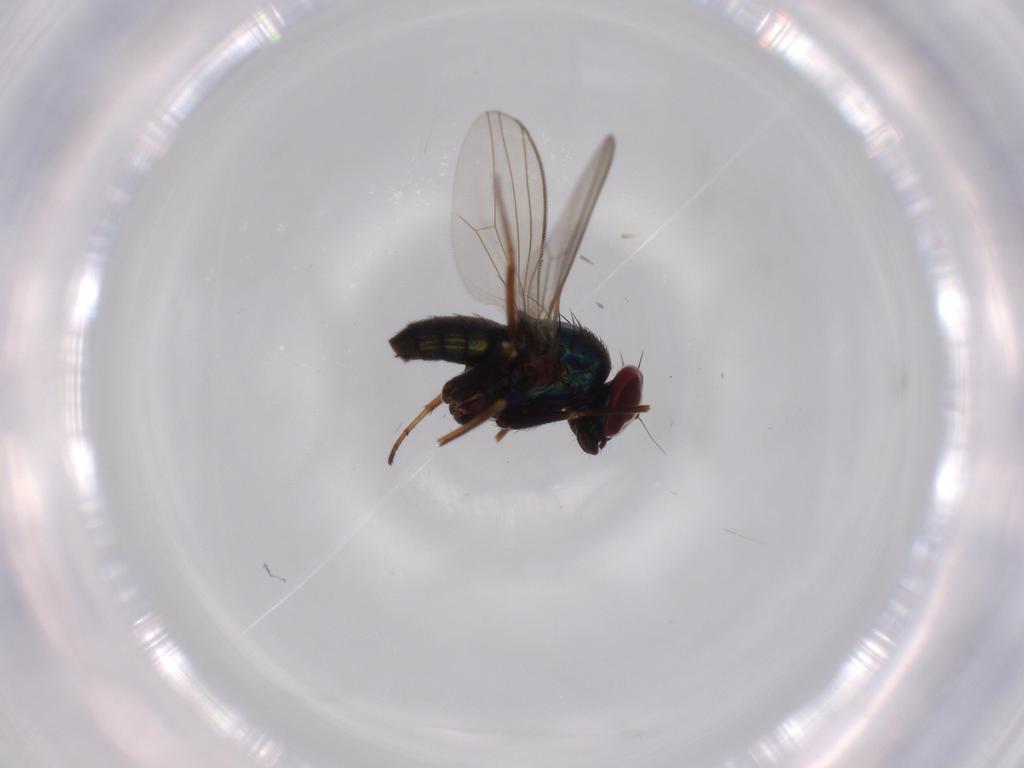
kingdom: Animalia
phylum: Arthropoda
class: Insecta
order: Diptera
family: Dolichopodidae
